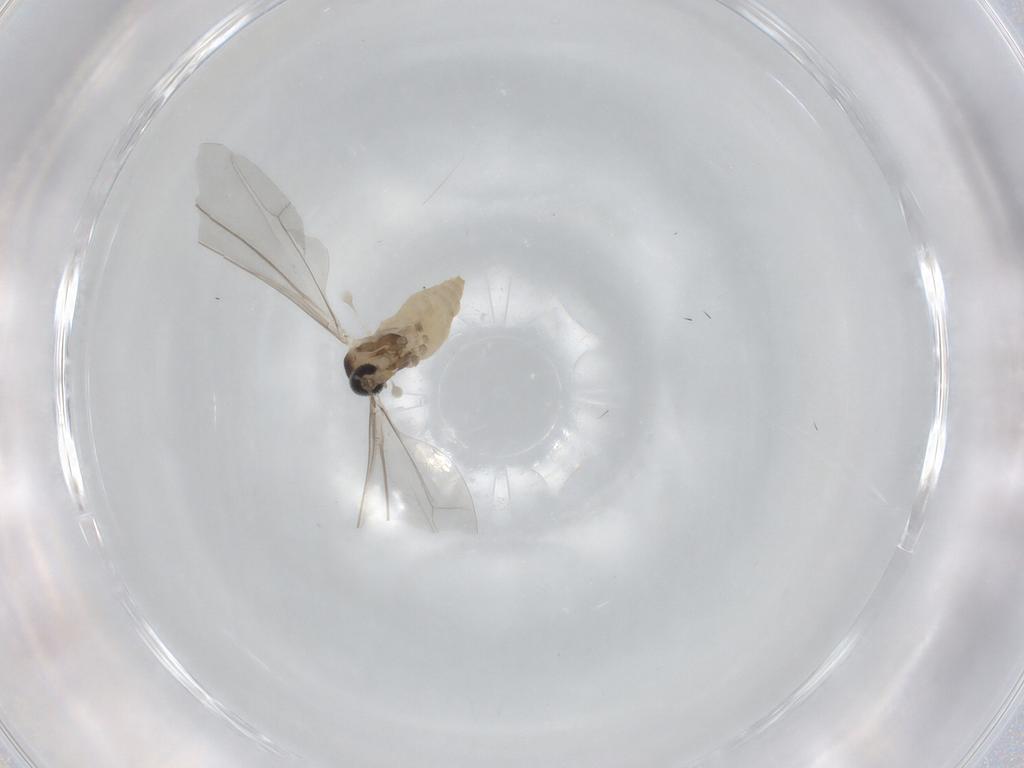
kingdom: Animalia
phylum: Arthropoda
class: Insecta
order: Diptera
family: Cecidomyiidae
